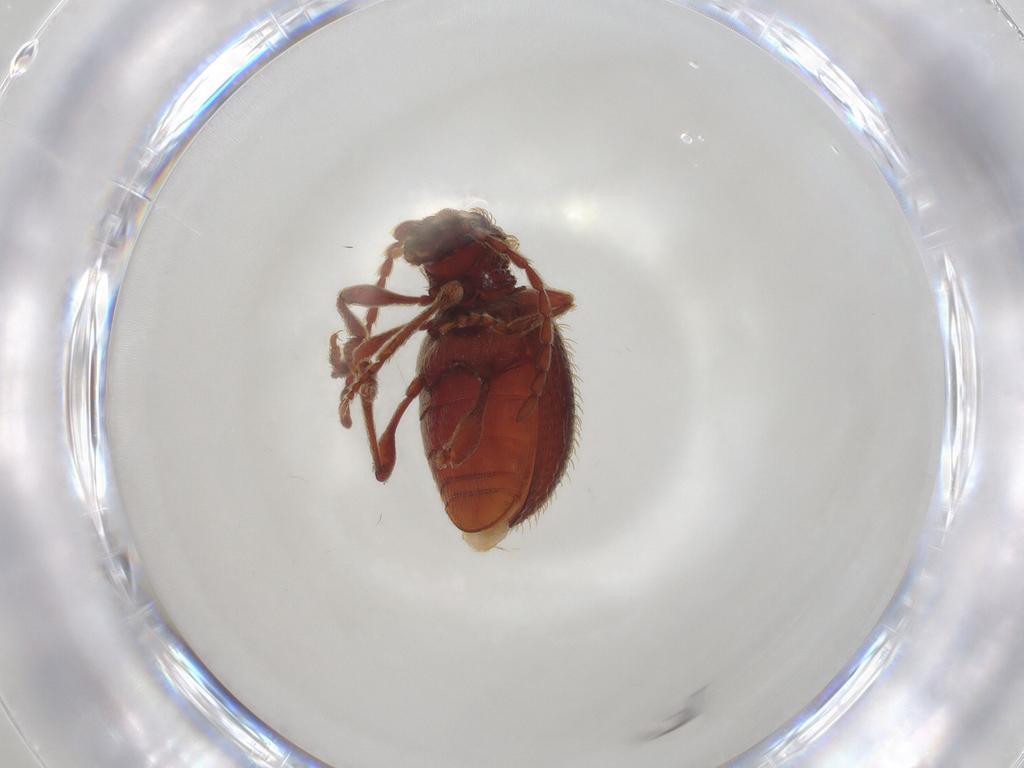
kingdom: Animalia
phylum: Arthropoda
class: Insecta
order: Coleoptera
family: Ptinidae
